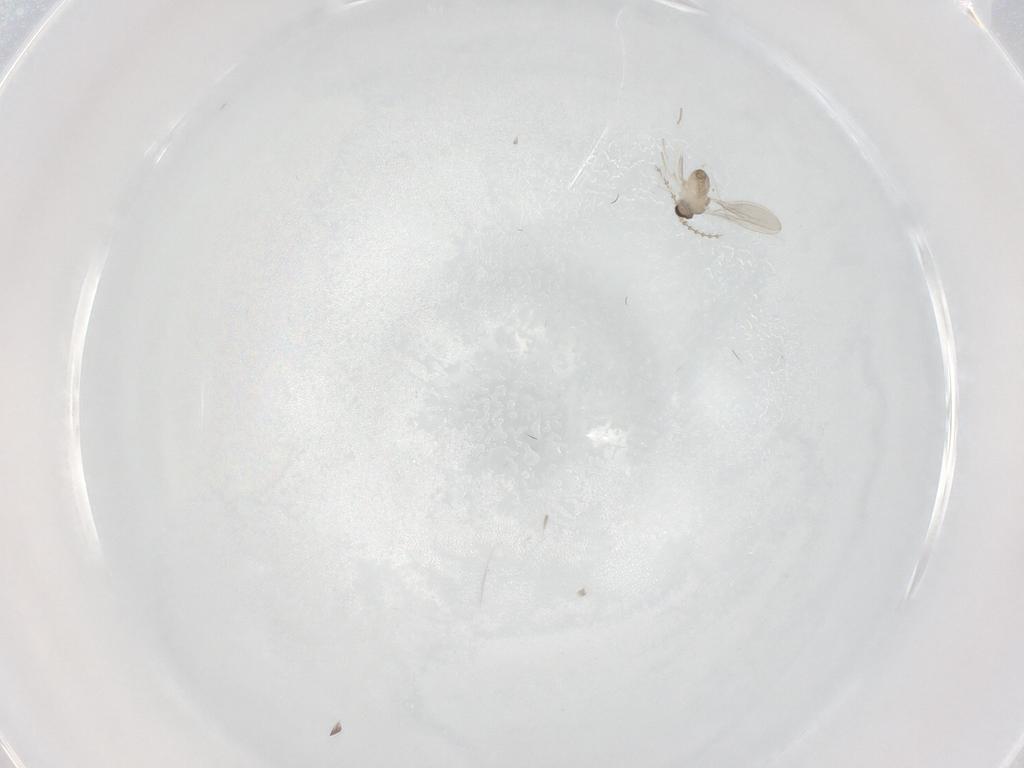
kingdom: Animalia
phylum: Arthropoda
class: Insecta
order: Diptera
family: Cecidomyiidae
